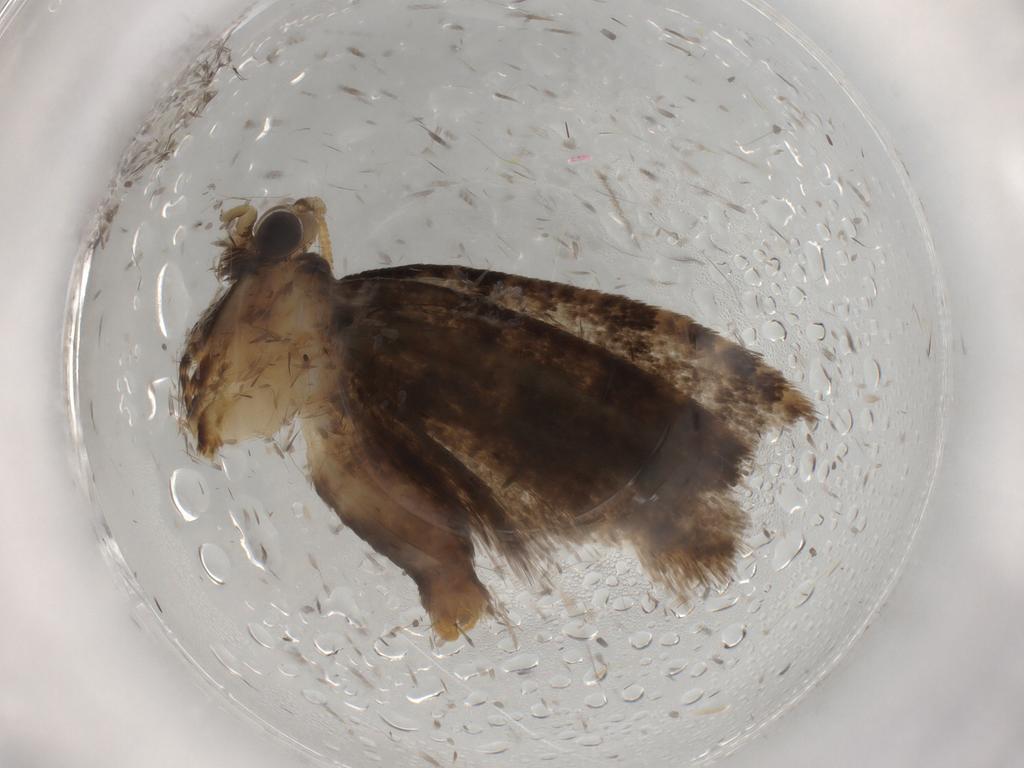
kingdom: Animalia
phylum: Arthropoda
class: Insecta
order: Lepidoptera
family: Tineidae
